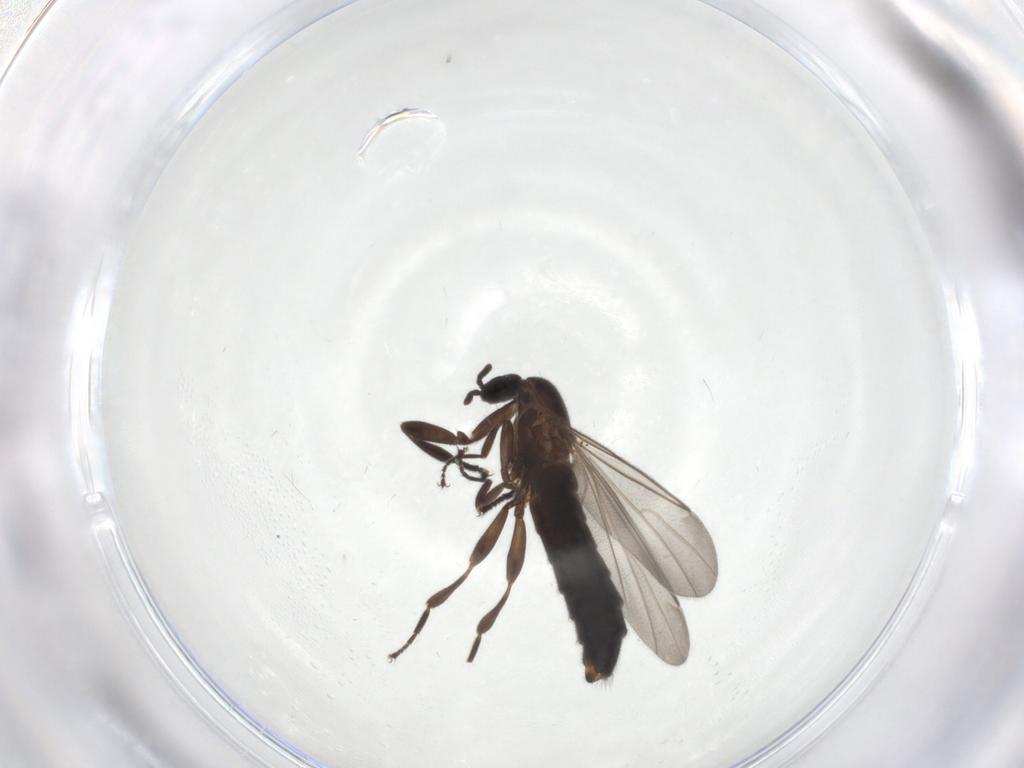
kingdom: Animalia
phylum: Arthropoda
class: Insecta
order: Diptera
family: Scatopsidae
